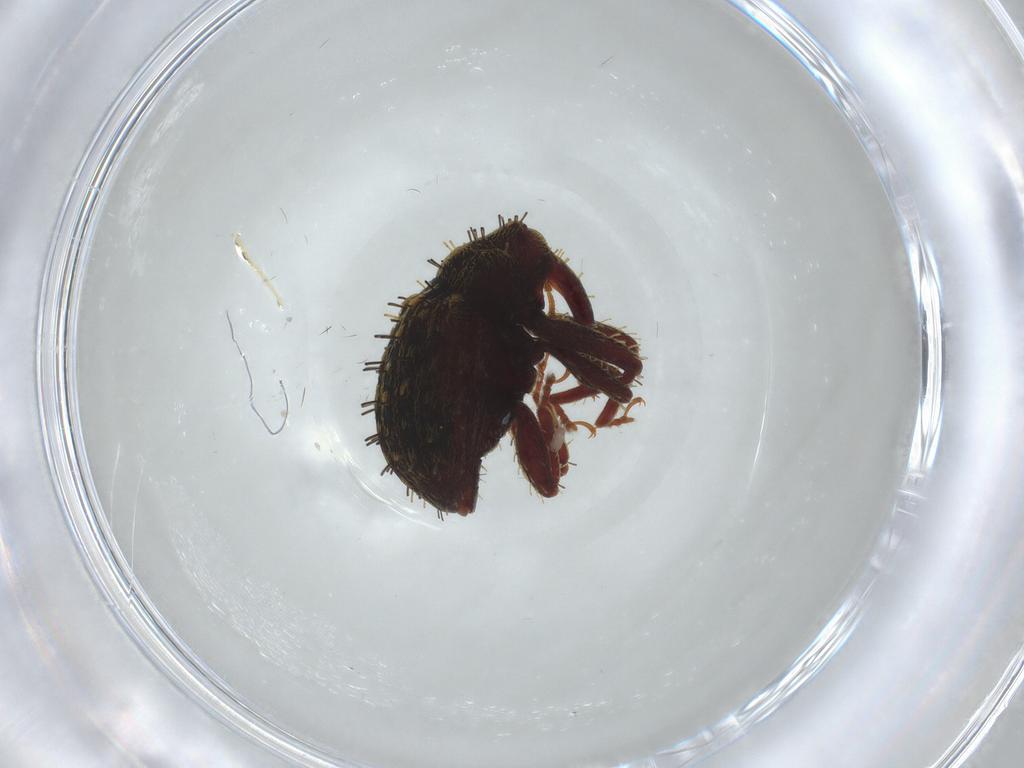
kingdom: Animalia
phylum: Arthropoda
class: Insecta
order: Coleoptera
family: Curculionidae
